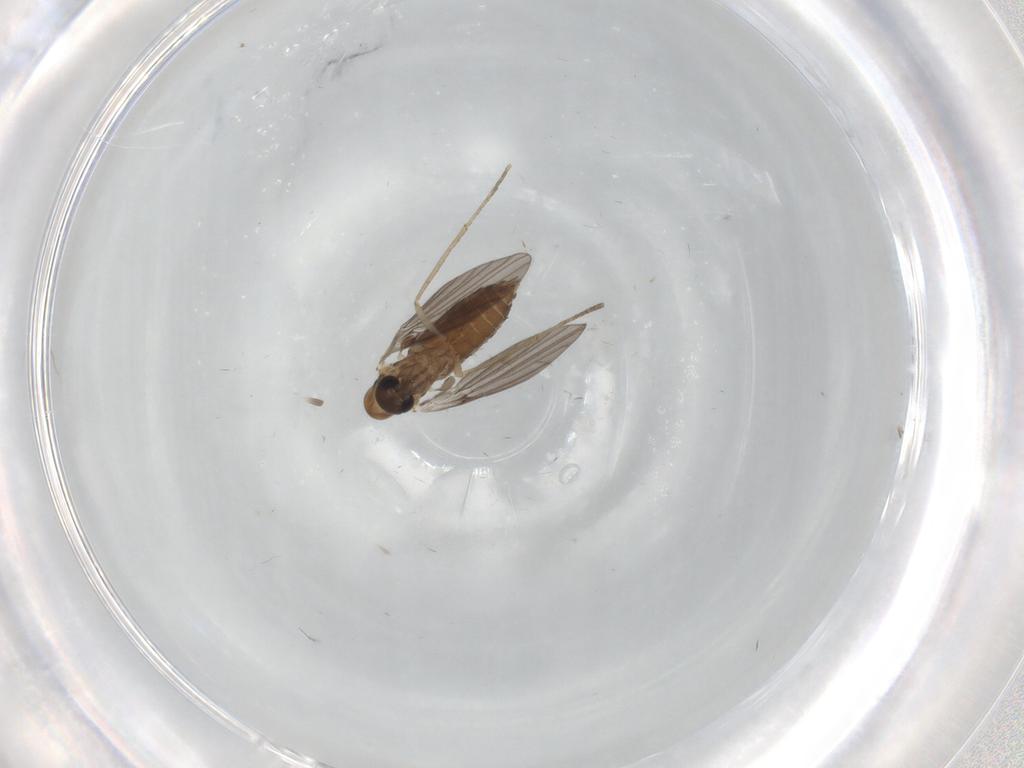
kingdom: Animalia
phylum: Arthropoda
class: Insecta
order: Diptera
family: Psychodidae
